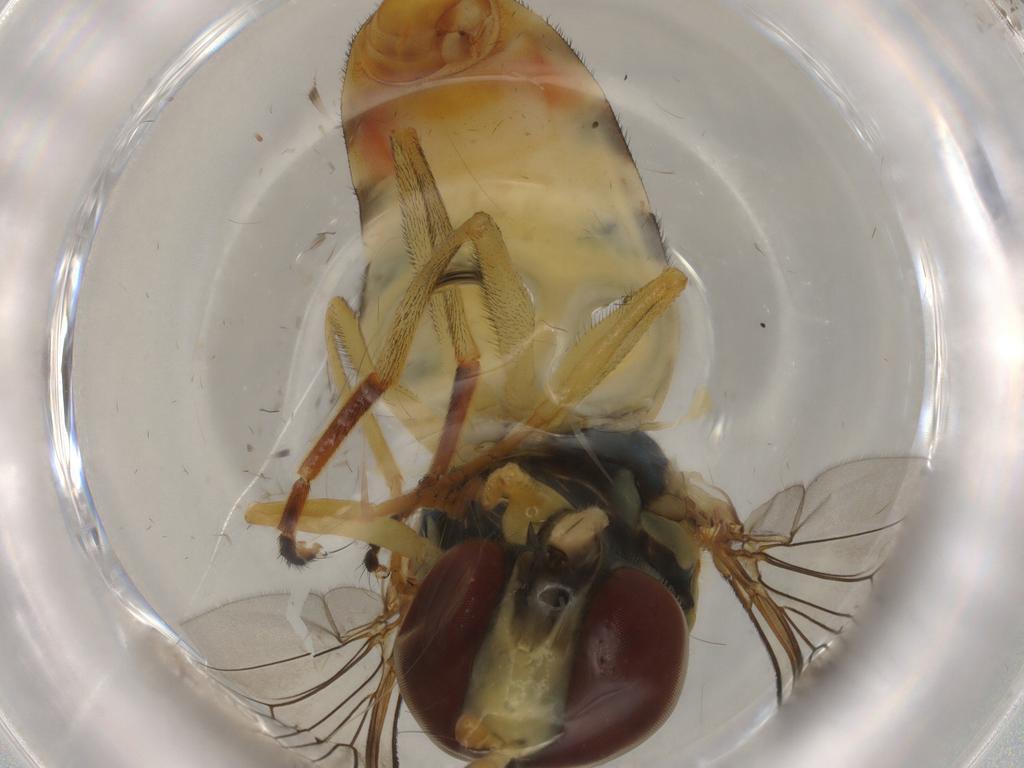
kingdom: Animalia
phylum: Arthropoda
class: Insecta
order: Diptera
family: Syrphidae
